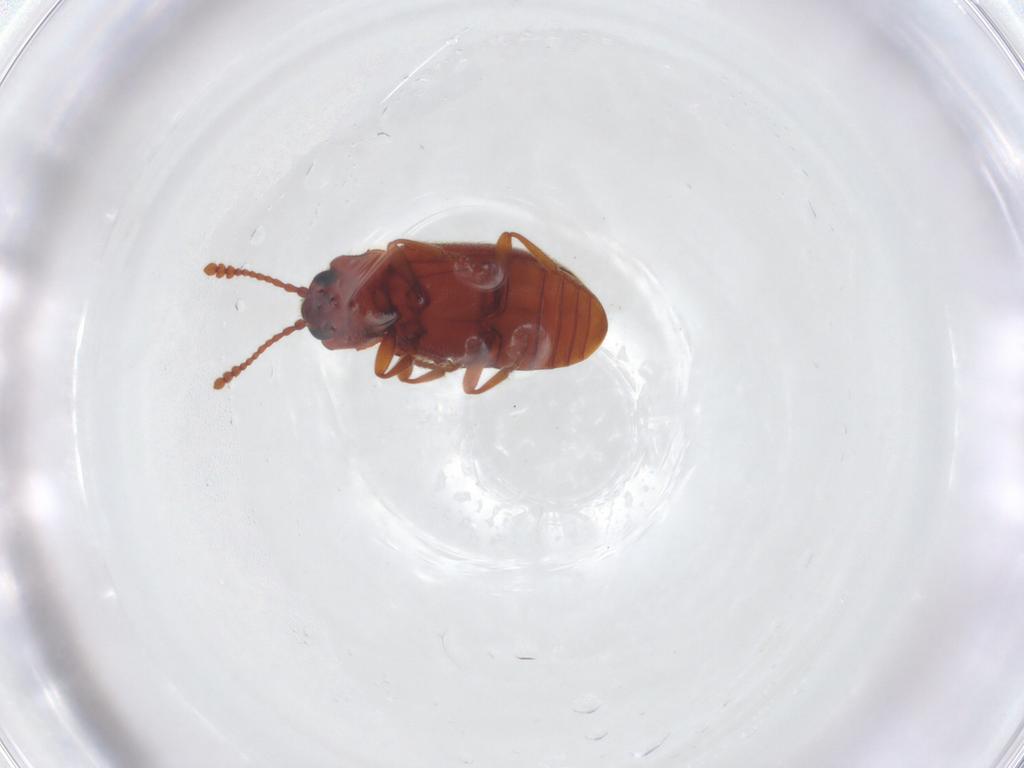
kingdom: Animalia
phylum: Arthropoda
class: Insecta
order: Coleoptera
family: Cryptophagidae
